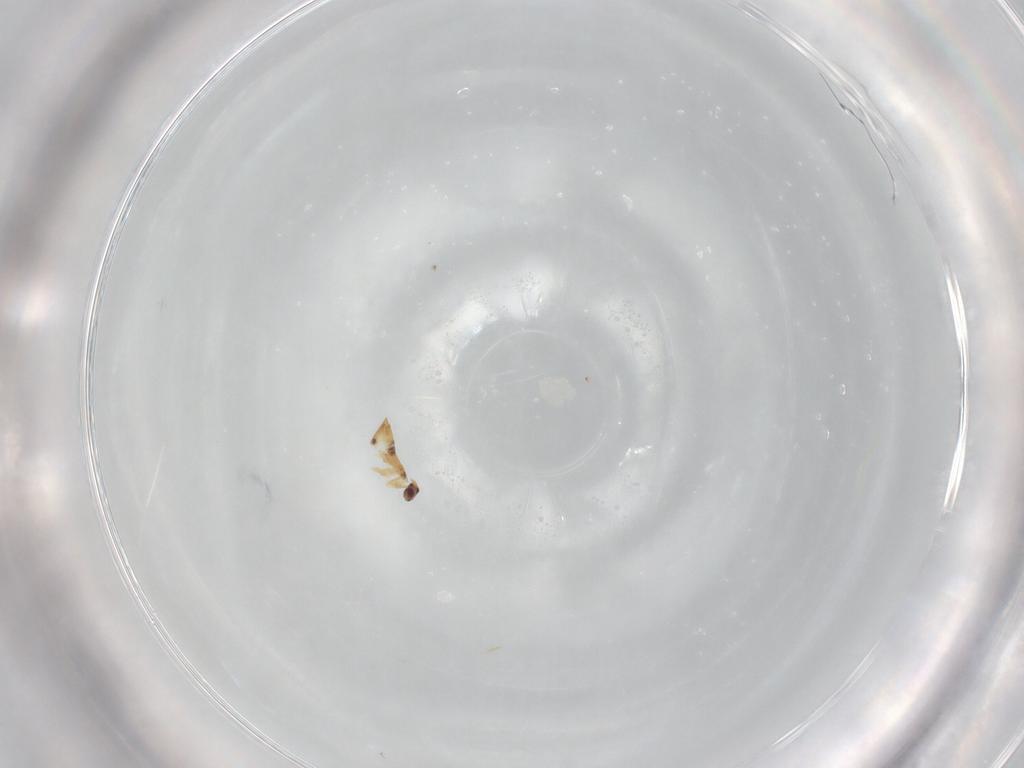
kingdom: Animalia
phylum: Arthropoda
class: Insecta
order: Hymenoptera
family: Mymaridae
